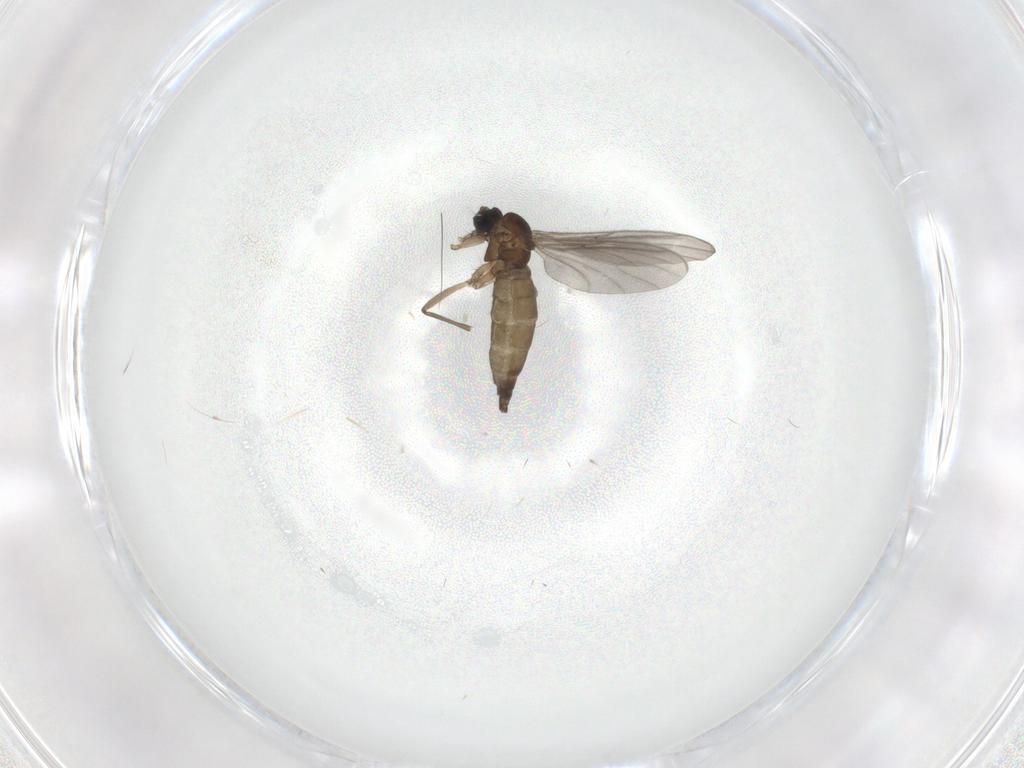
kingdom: Animalia
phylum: Arthropoda
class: Insecta
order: Diptera
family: Sciaridae
